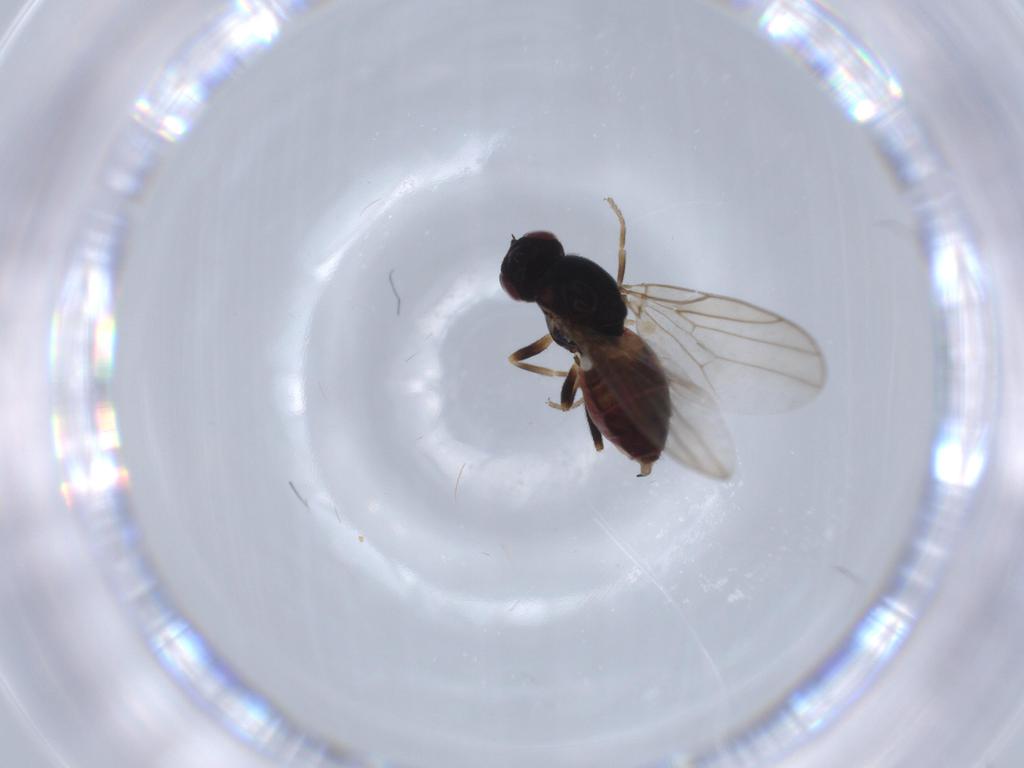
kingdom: Animalia
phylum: Arthropoda
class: Insecta
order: Diptera
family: Chloropidae
